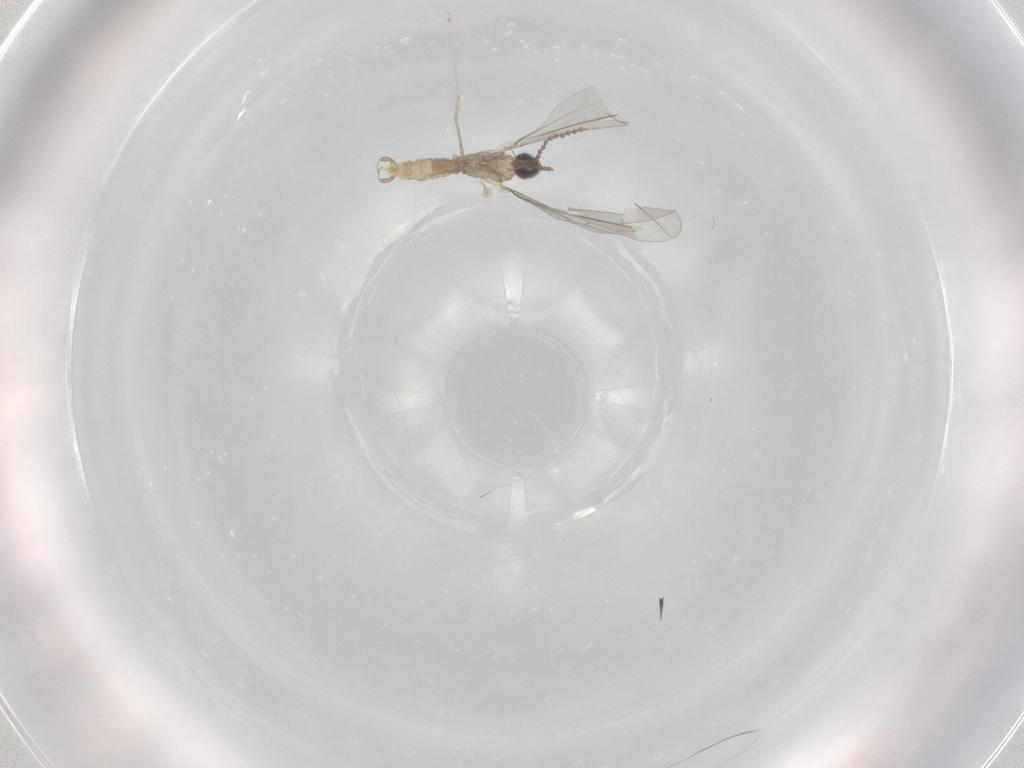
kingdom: Animalia
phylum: Arthropoda
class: Insecta
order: Diptera
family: Cecidomyiidae
